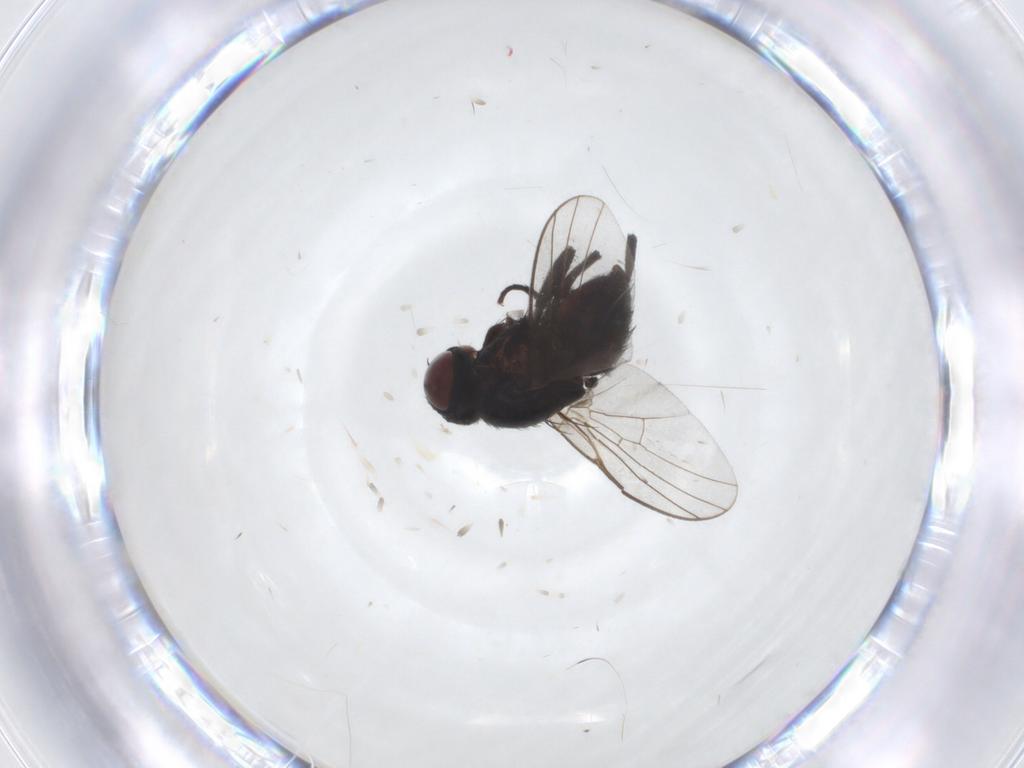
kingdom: Animalia
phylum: Arthropoda
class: Insecta
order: Diptera
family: Agromyzidae
